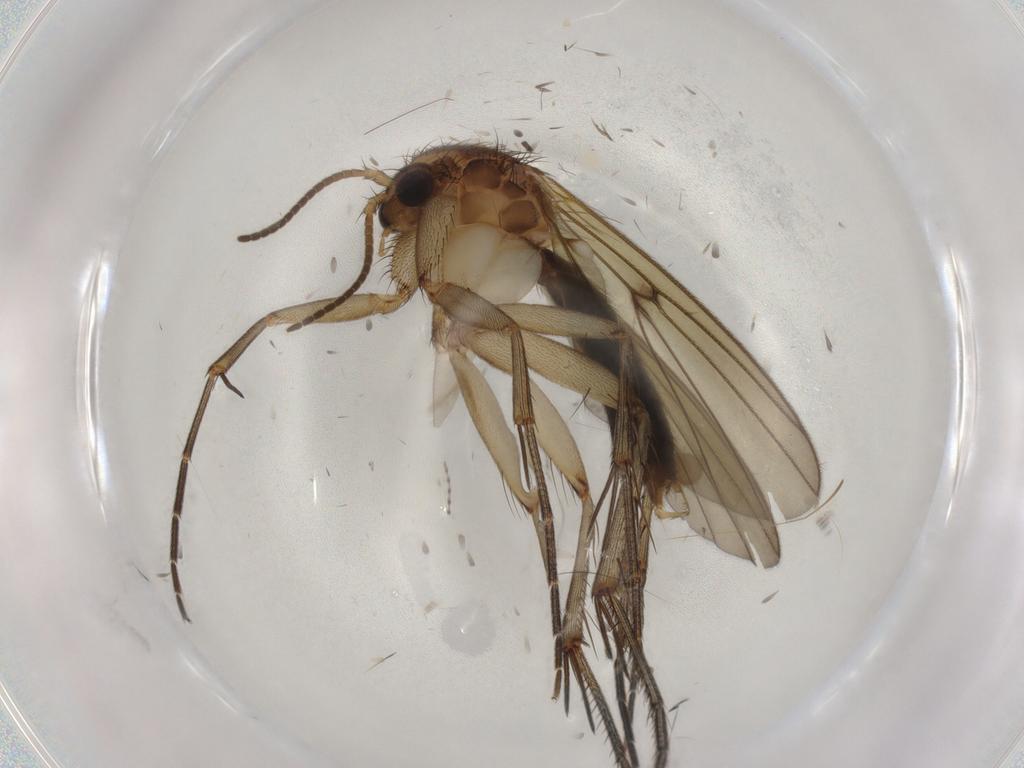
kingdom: Animalia
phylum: Arthropoda
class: Insecta
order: Diptera
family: Mycetophilidae
